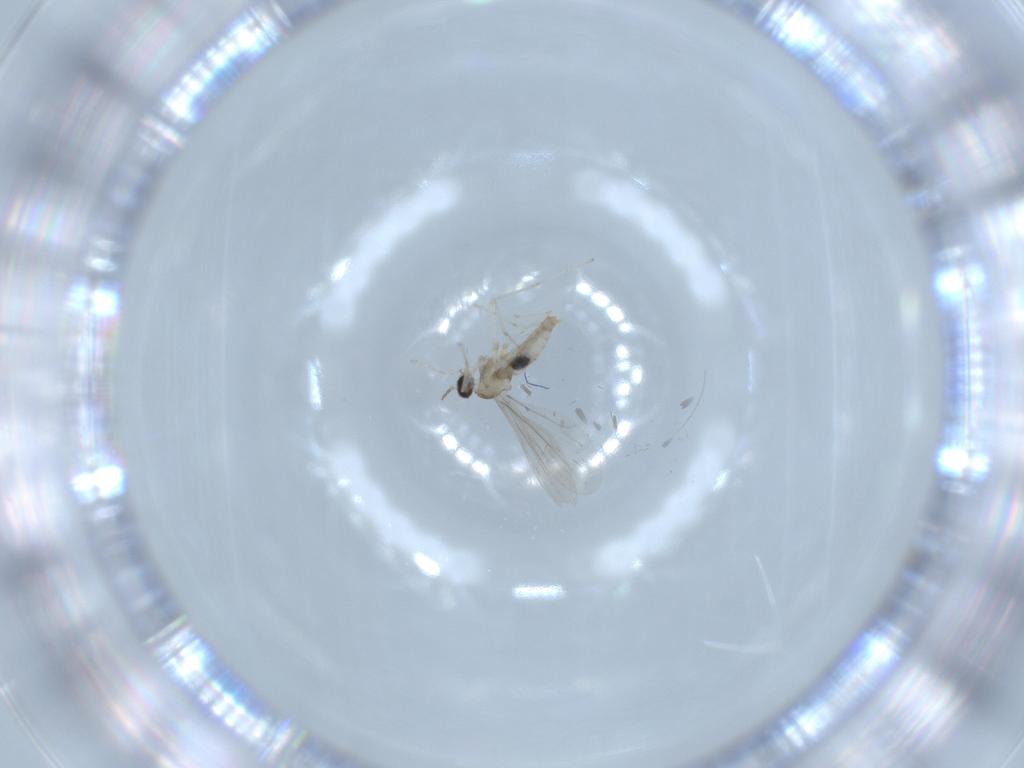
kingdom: Animalia
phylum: Arthropoda
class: Insecta
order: Diptera
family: Cecidomyiidae
